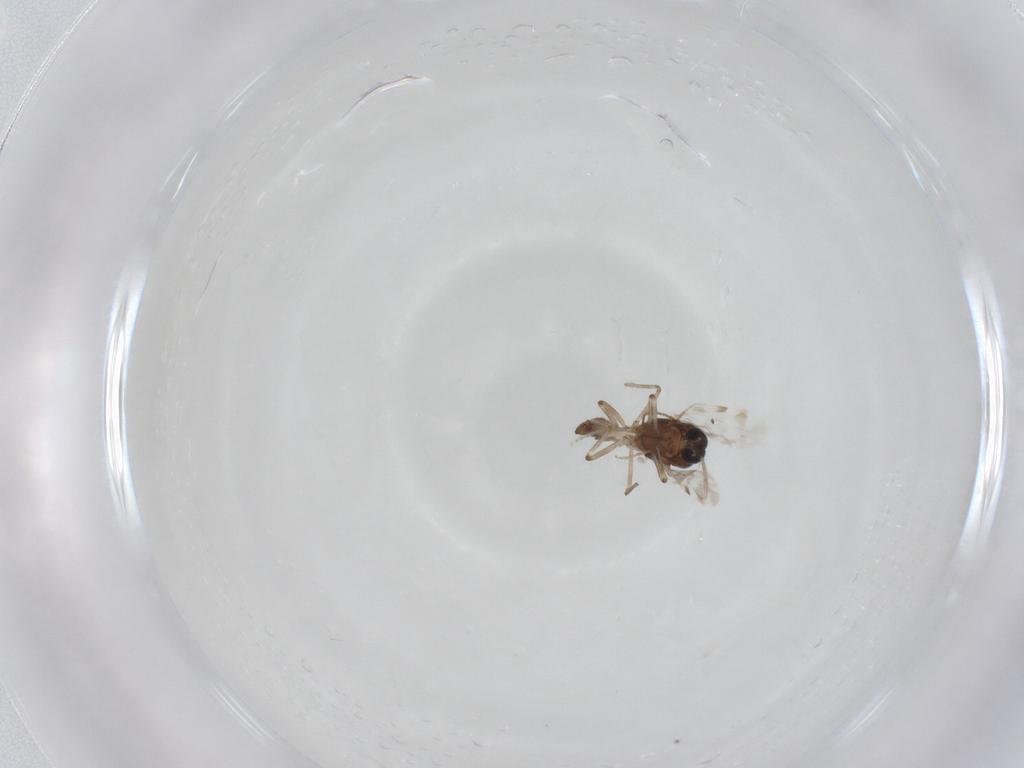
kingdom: Animalia
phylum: Arthropoda
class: Insecta
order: Diptera
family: Ceratopogonidae
